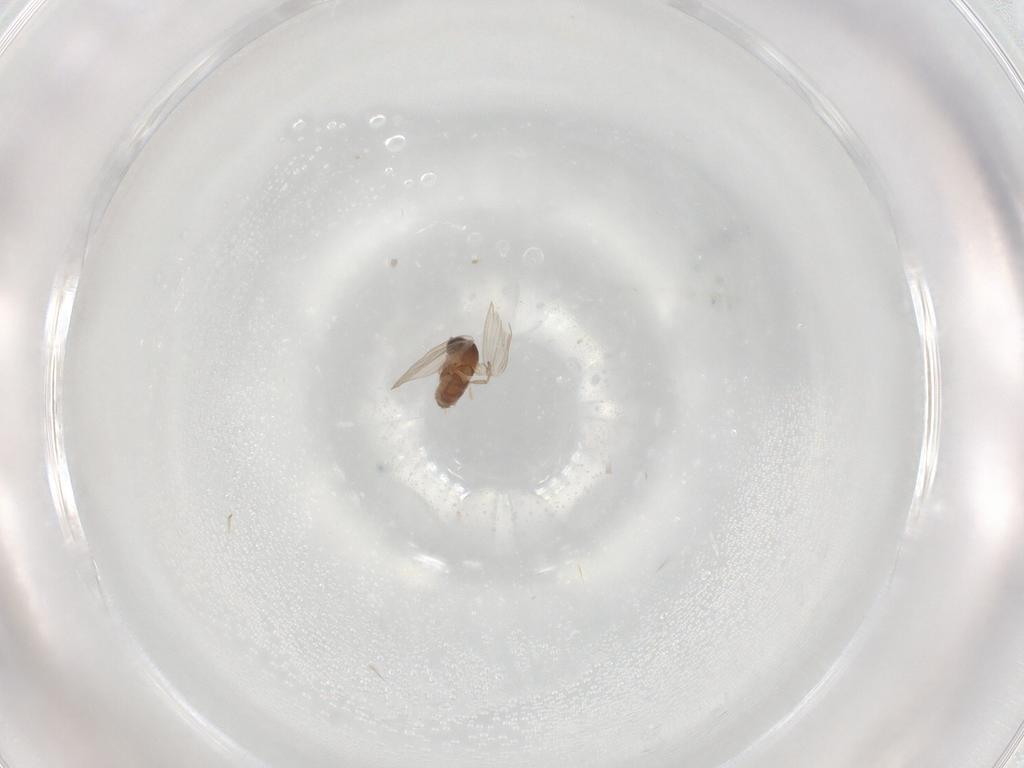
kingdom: Animalia
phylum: Arthropoda
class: Insecta
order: Diptera
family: Psychodidae
